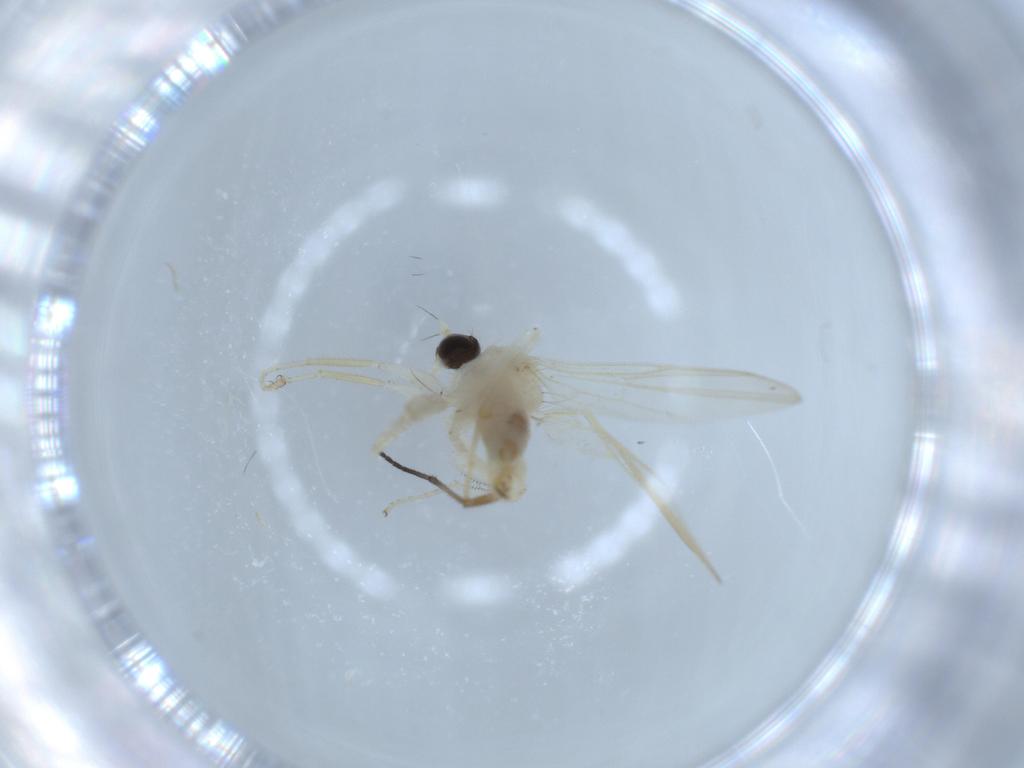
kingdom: Animalia
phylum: Arthropoda
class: Insecta
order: Diptera
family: Hybotidae
